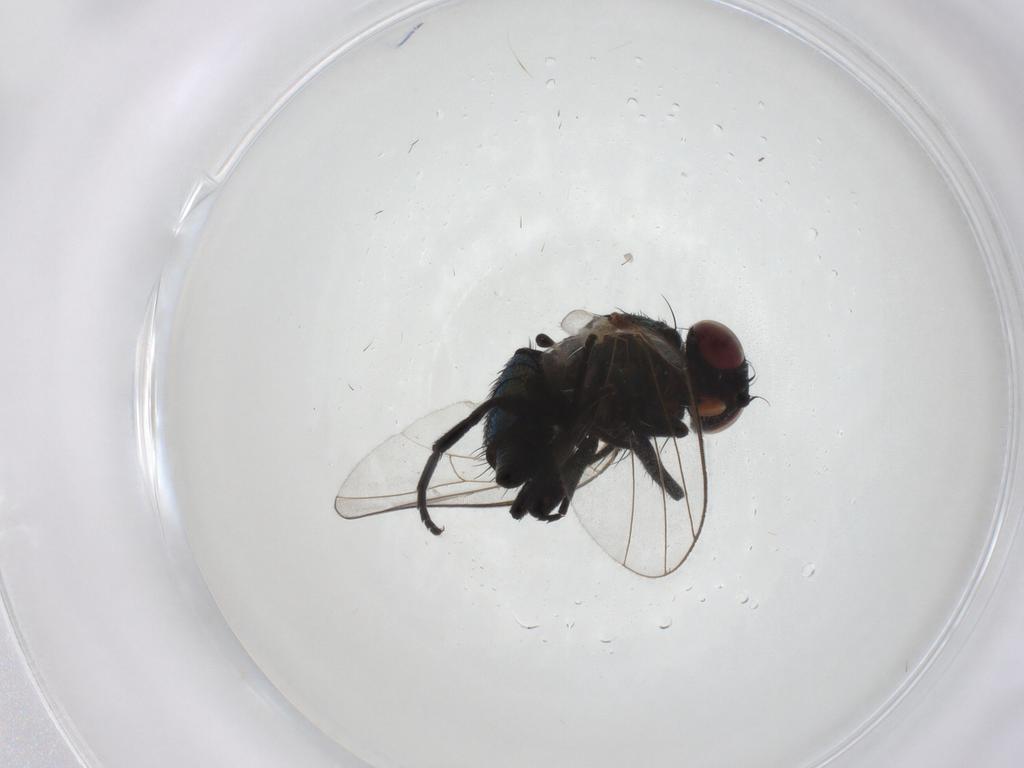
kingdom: Animalia
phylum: Arthropoda
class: Insecta
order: Diptera
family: Agromyzidae
